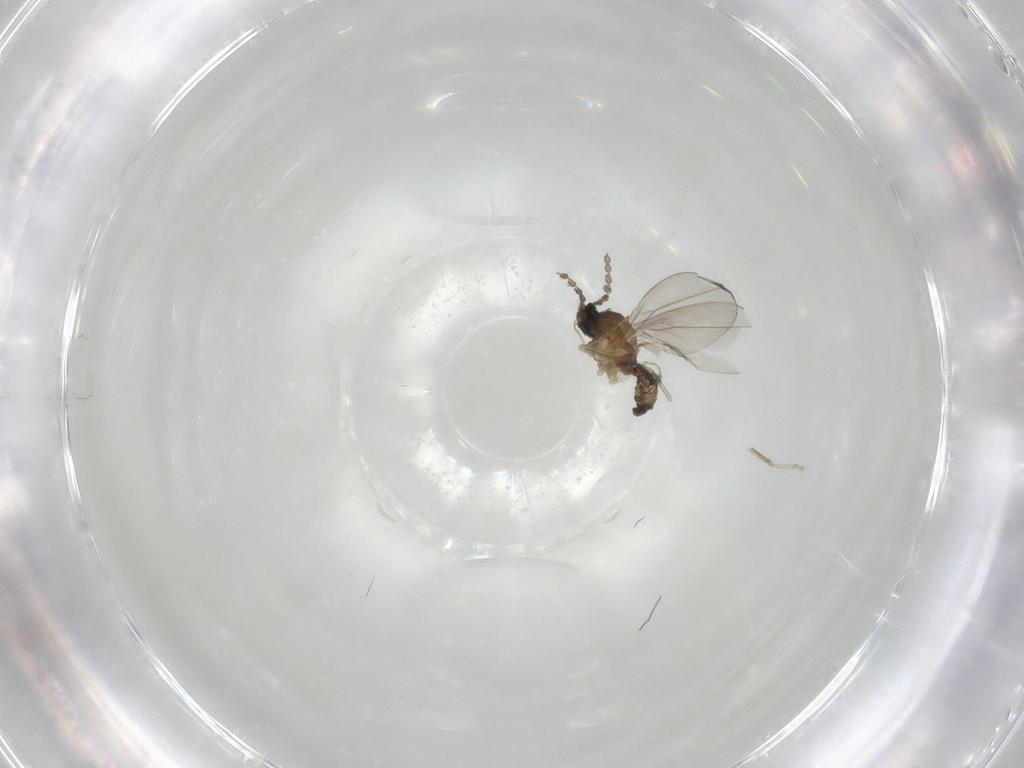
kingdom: Animalia
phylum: Arthropoda
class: Insecta
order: Diptera
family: Cecidomyiidae
